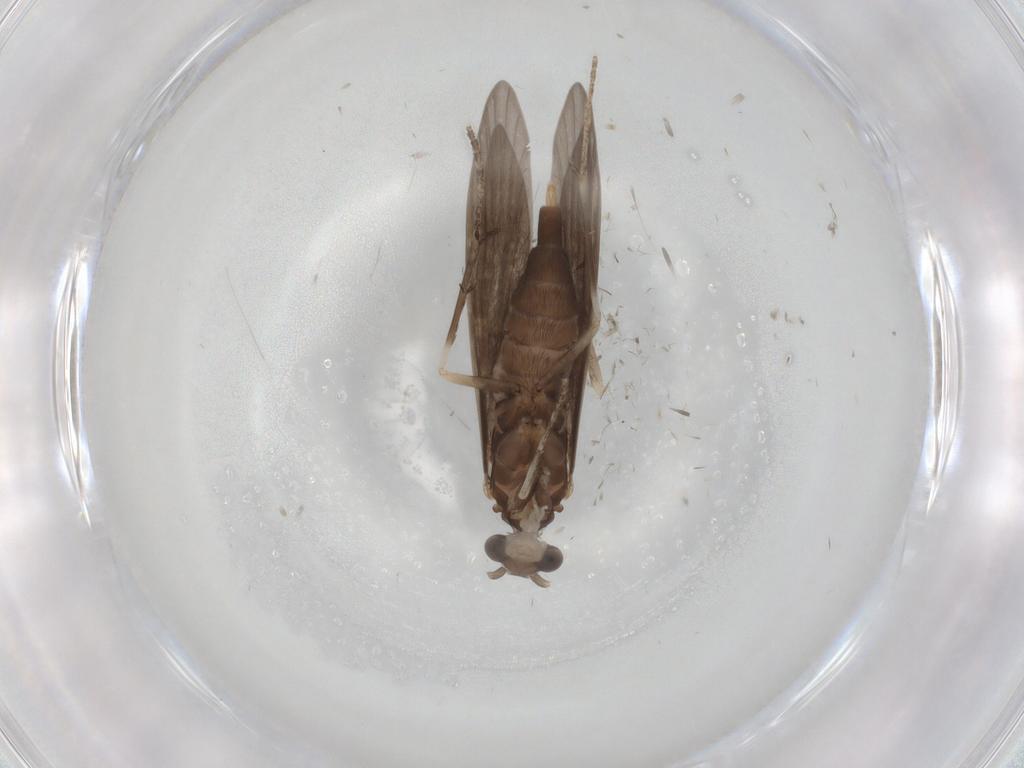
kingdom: Animalia
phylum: Arthropoda
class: Insecta
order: Trichoptera
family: Xiphocentronidae
